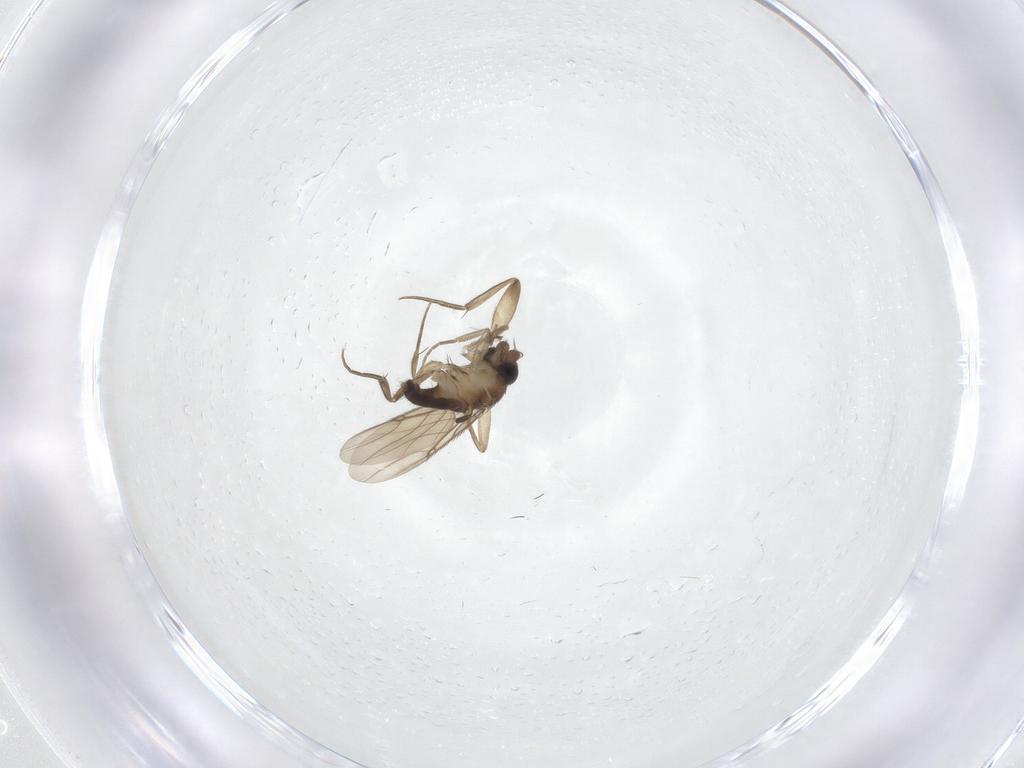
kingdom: Animalia
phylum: Arthropoda
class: Insecta
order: Diptera
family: Phoridae
